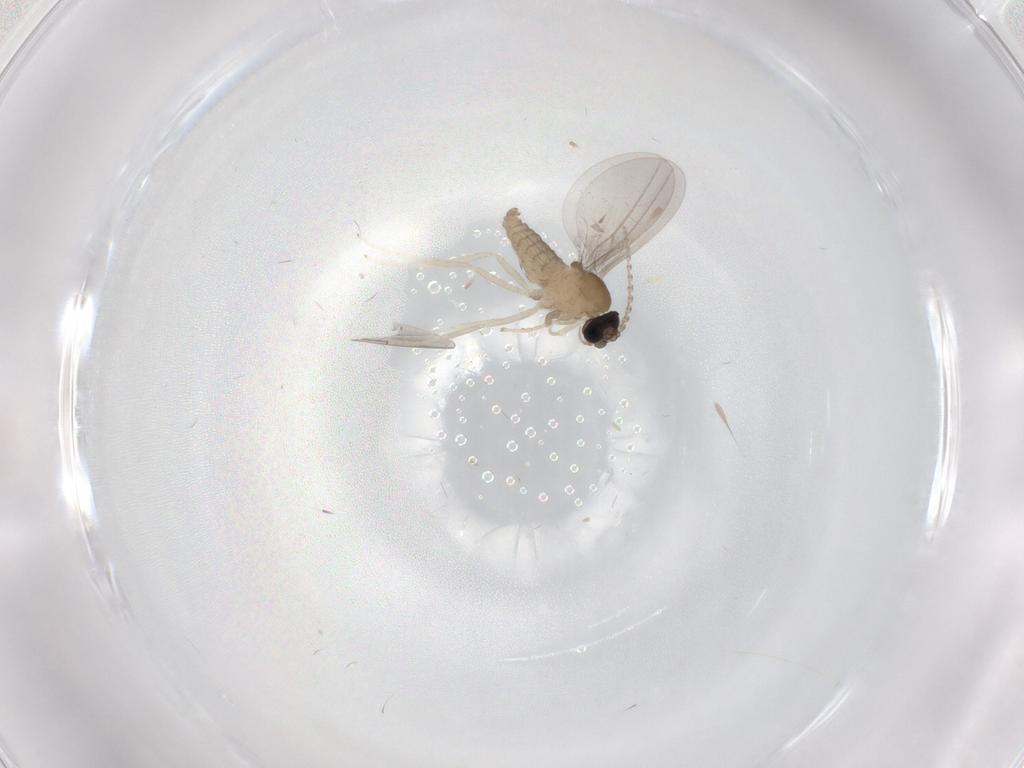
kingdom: Animalia
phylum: Arthropoda
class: Insecta
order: Diptera
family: Cecidomyiidae
